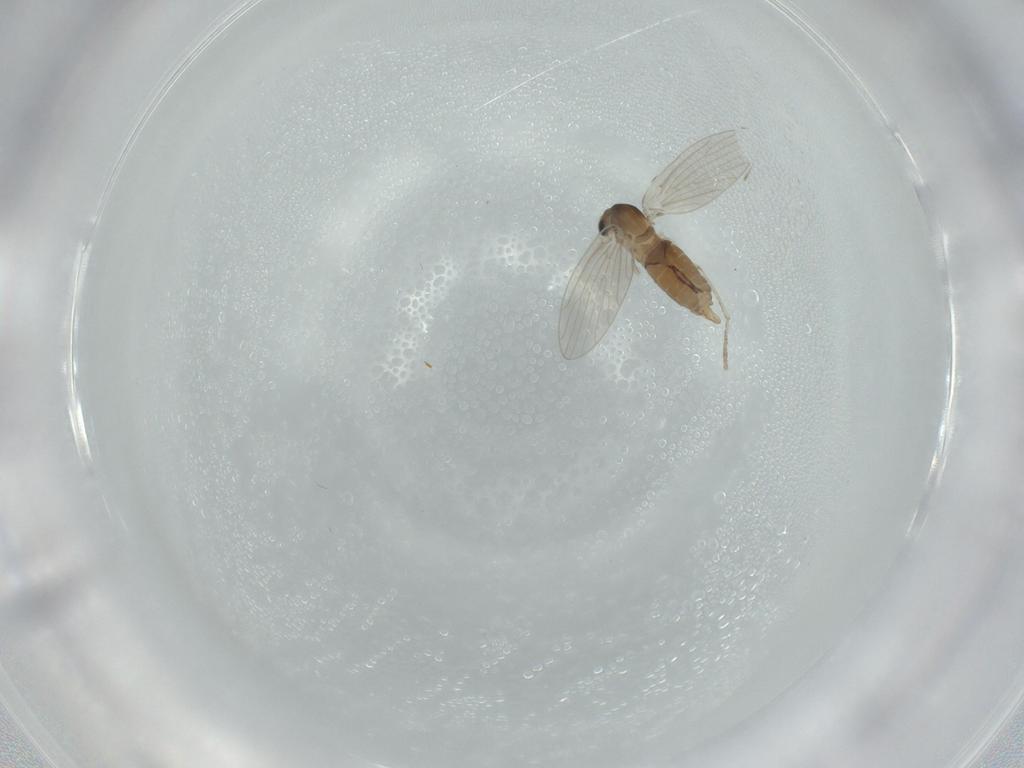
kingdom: Animalia
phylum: Arthropoda
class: Insecta
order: Diptera
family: Psychodidae
